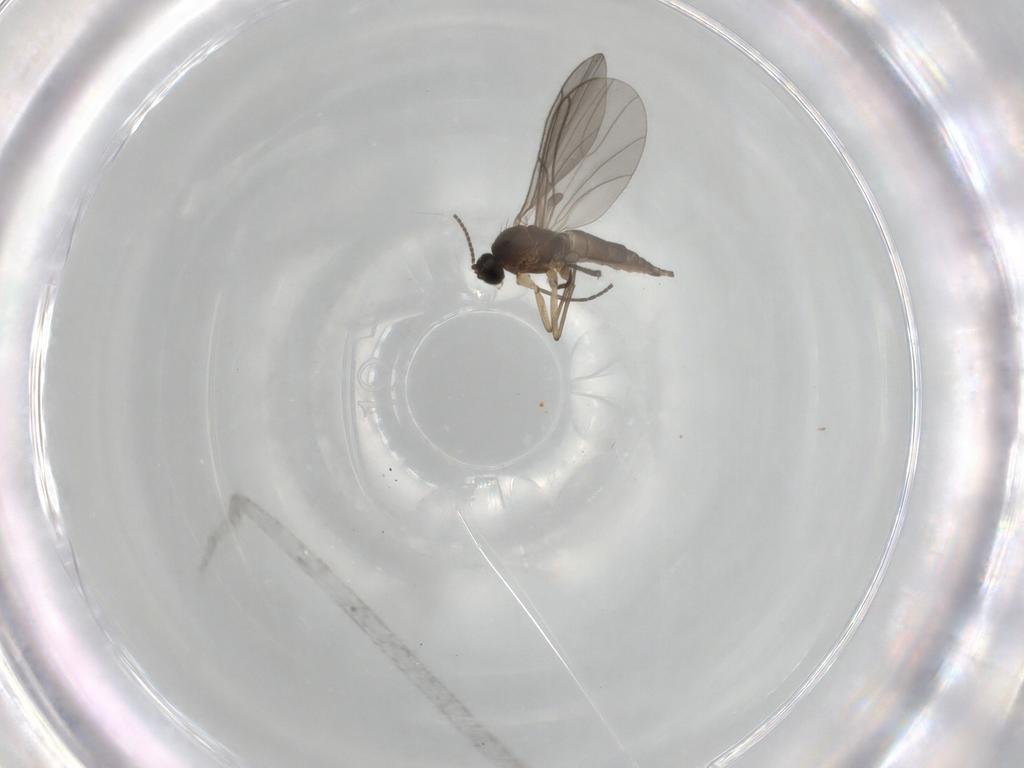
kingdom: Animalia
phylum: Arthropoda
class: Insecta
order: Diptera
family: Sciaridae
